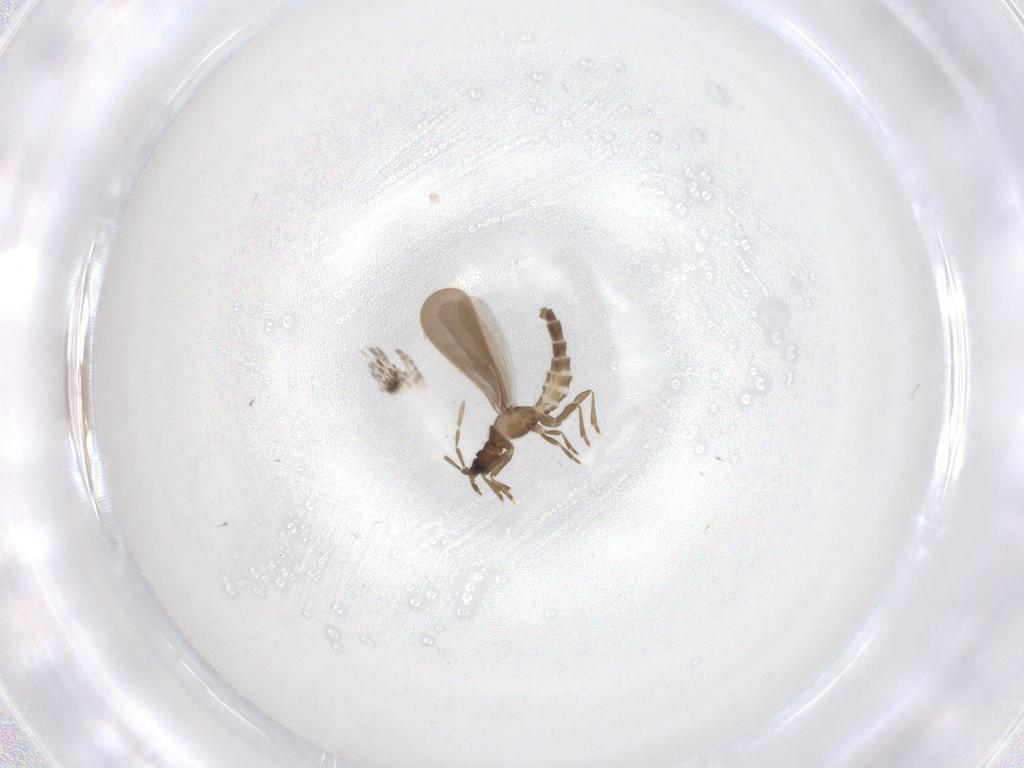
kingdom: Animalia
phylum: Arthropoda
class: Insecta
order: Hemiptera
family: Enicocephalidae
